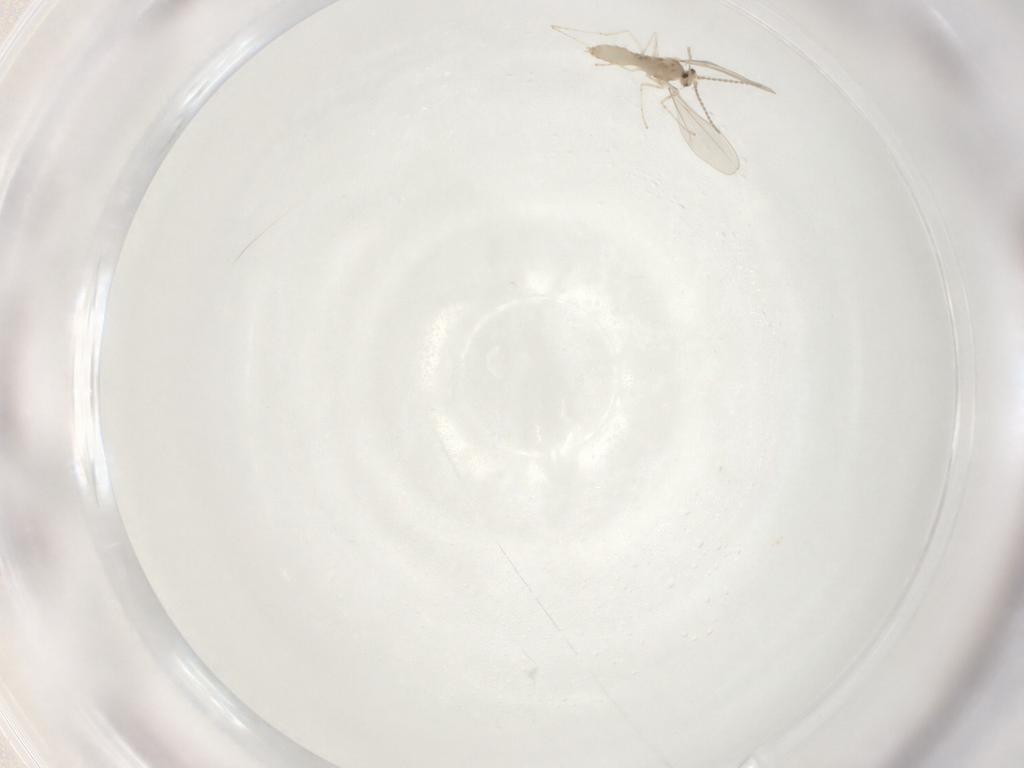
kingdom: Animalia
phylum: Arthropoda
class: Insecta
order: Diptera
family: Cecidomyiidae
